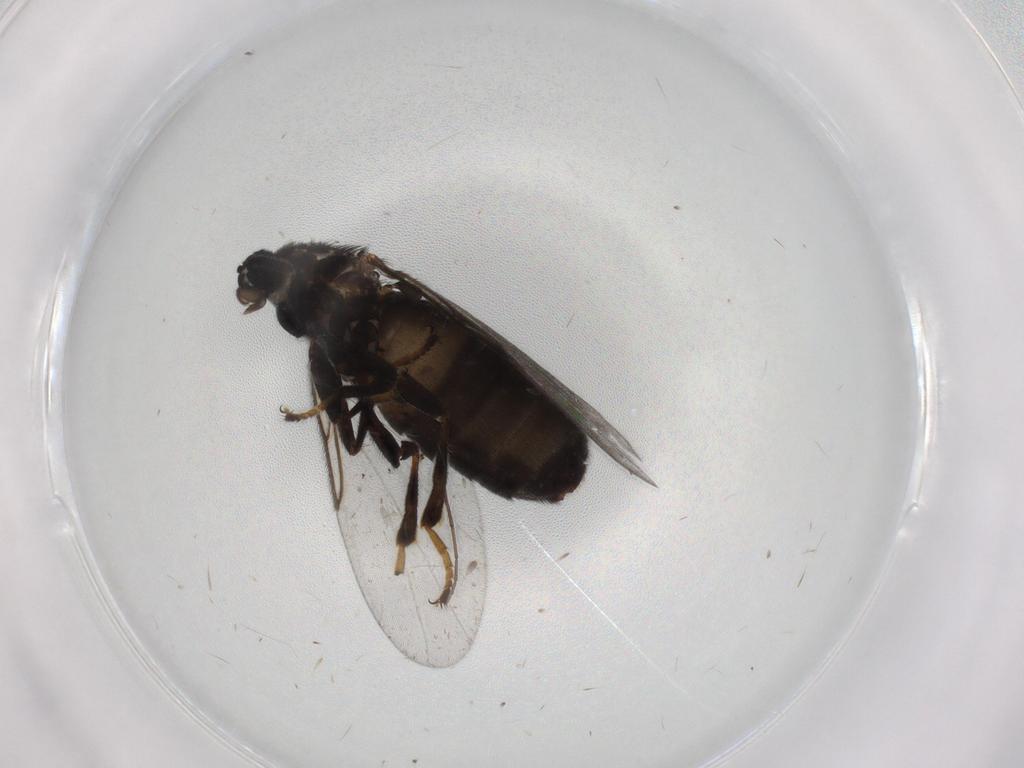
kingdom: Animalia
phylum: Arthropoda
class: Insecta
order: Diptera
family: Scatopsidae
